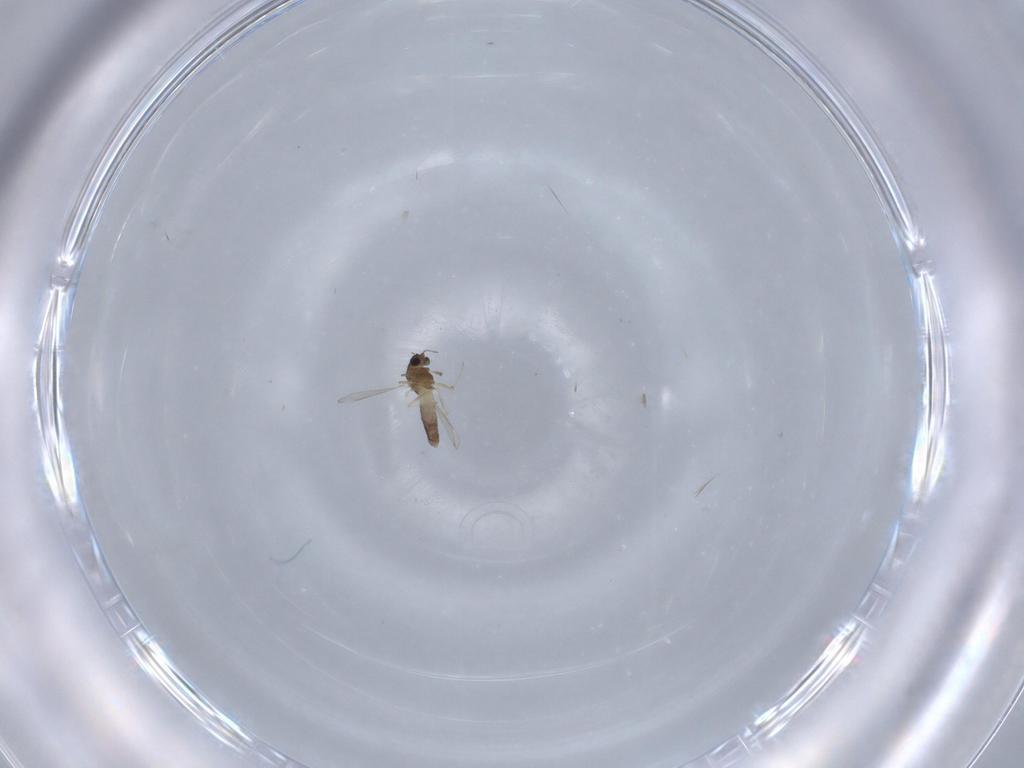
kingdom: Animalia
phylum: Arthropoda
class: Insecta
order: Diptera
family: Chironomidae
